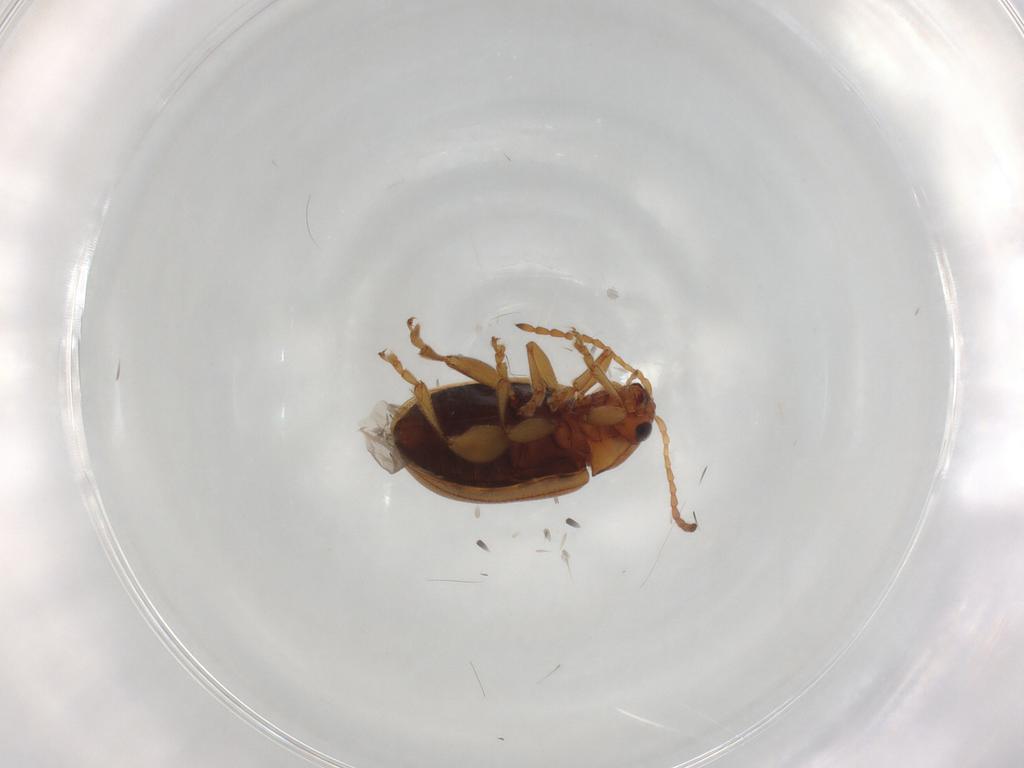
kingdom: Animalia
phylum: Arthropoda
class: Insecta
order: Coleoptera
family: Chrysomelidae
